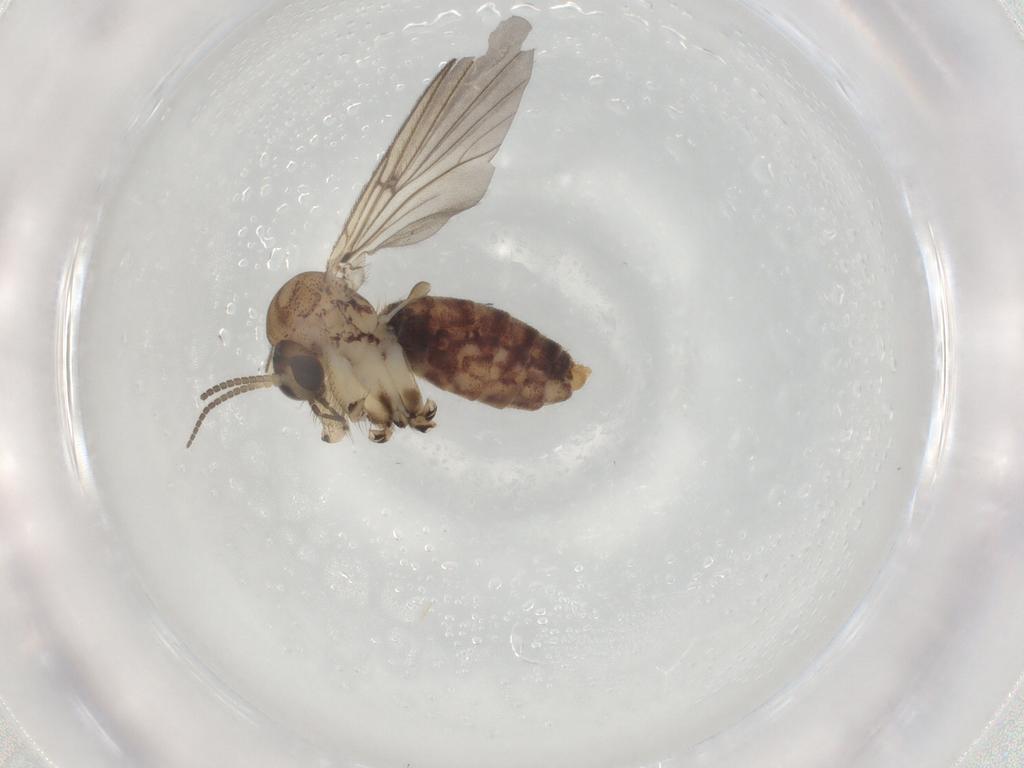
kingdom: Animalia
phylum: Arthropoda
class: Insecta
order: Diptera
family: Mycetophilidae
